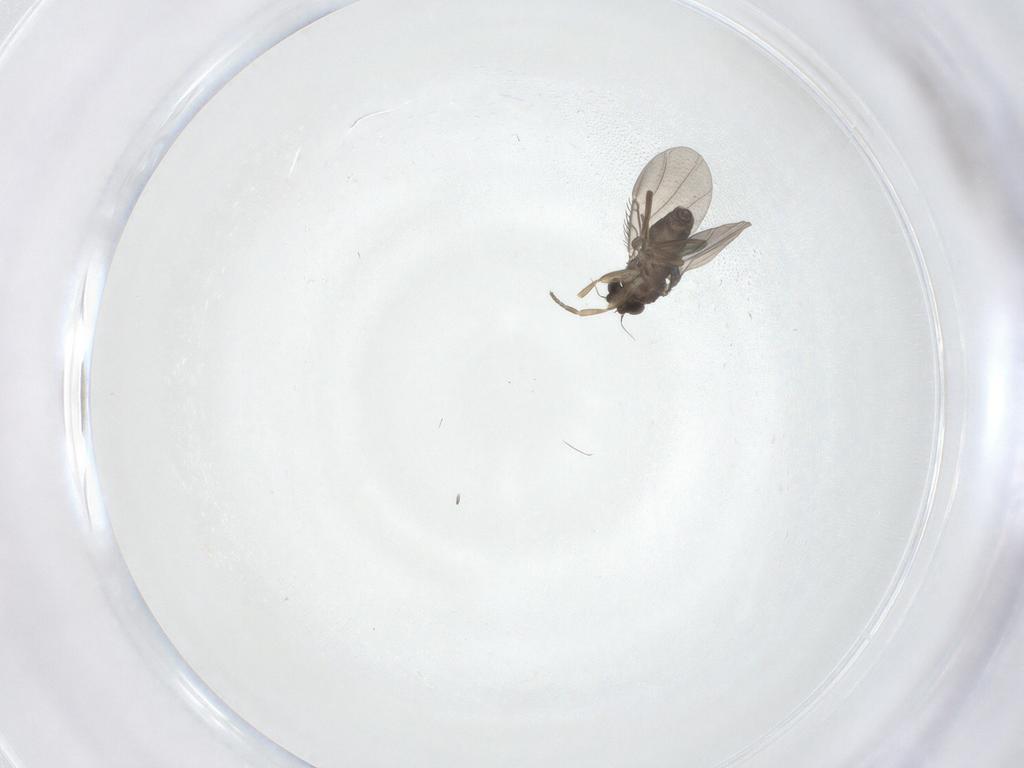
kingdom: Animalia
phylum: Arthropoda
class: Insecta
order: Diptera
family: Phoridae
